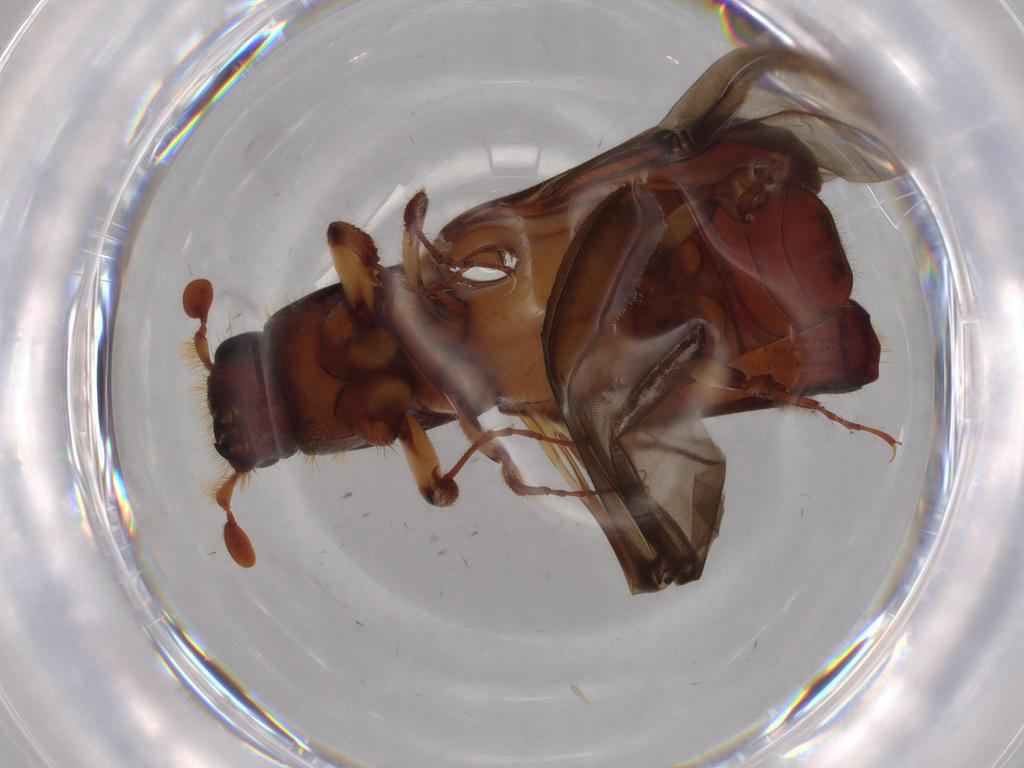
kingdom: Animalia
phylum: Arthropoda
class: Insecta
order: Coleoptera
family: Curculionidae
